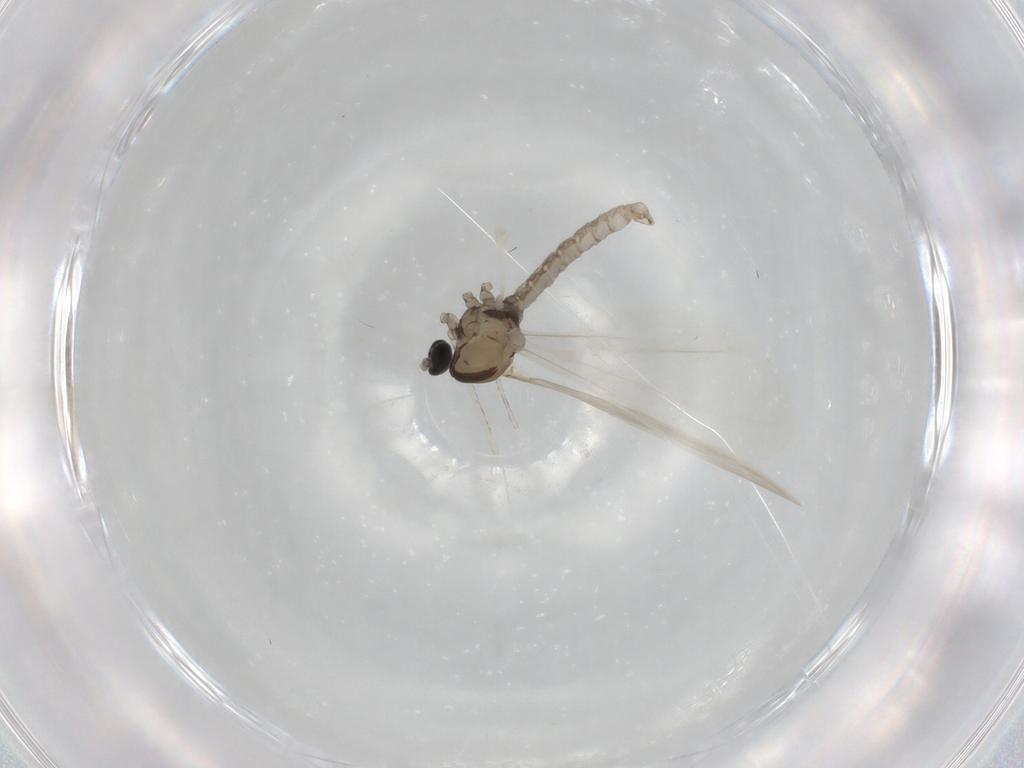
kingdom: Animalia
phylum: Arthropoda
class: Insecta
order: Diptera
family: Cecidomyiidae
